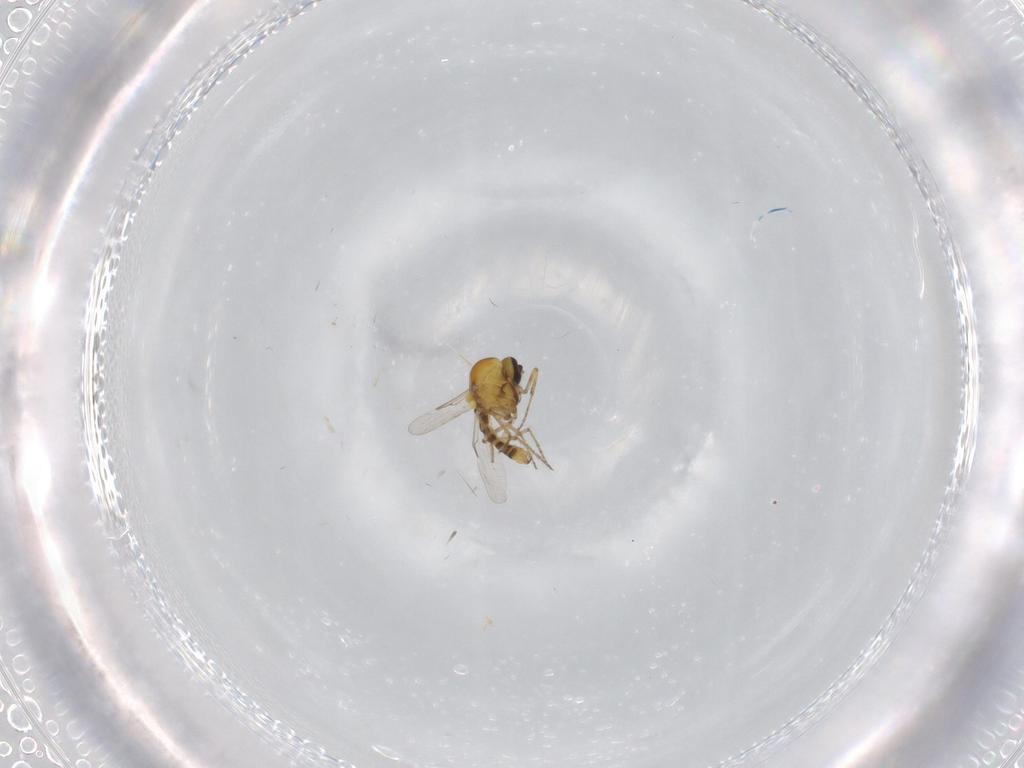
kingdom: Animalia
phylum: Arthropoda
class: Insecta
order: Diptera
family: Ceratopogonidae
